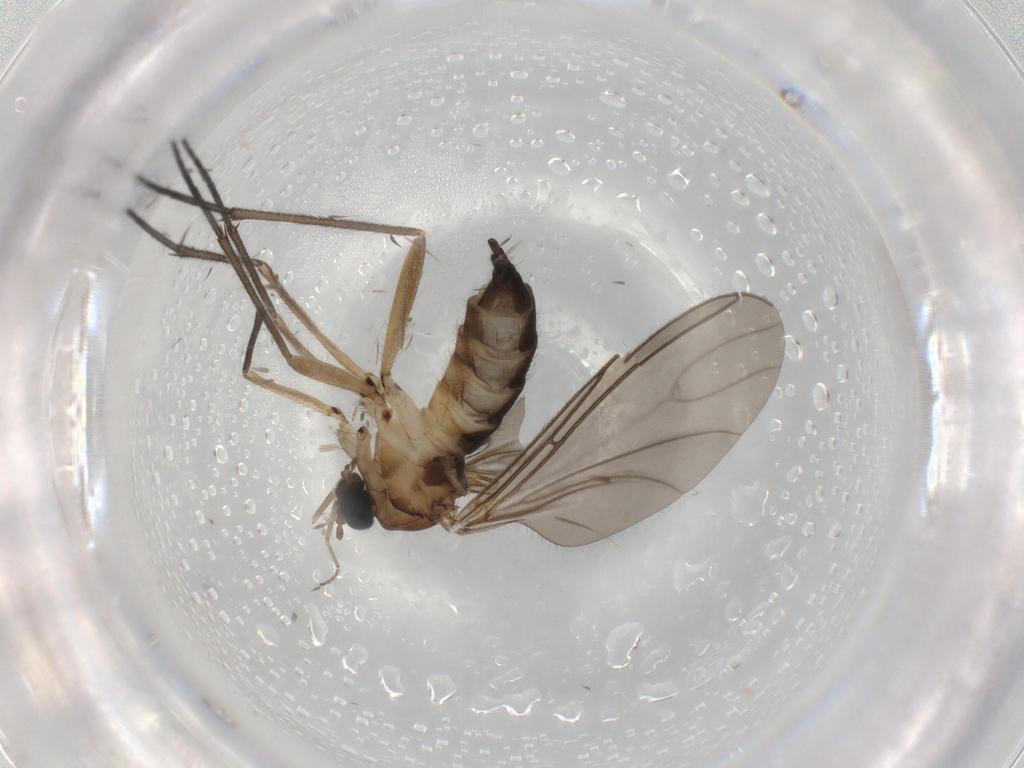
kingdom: Animalia
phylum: Arthropoda
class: Insecta
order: Diptera
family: Sciaridae
